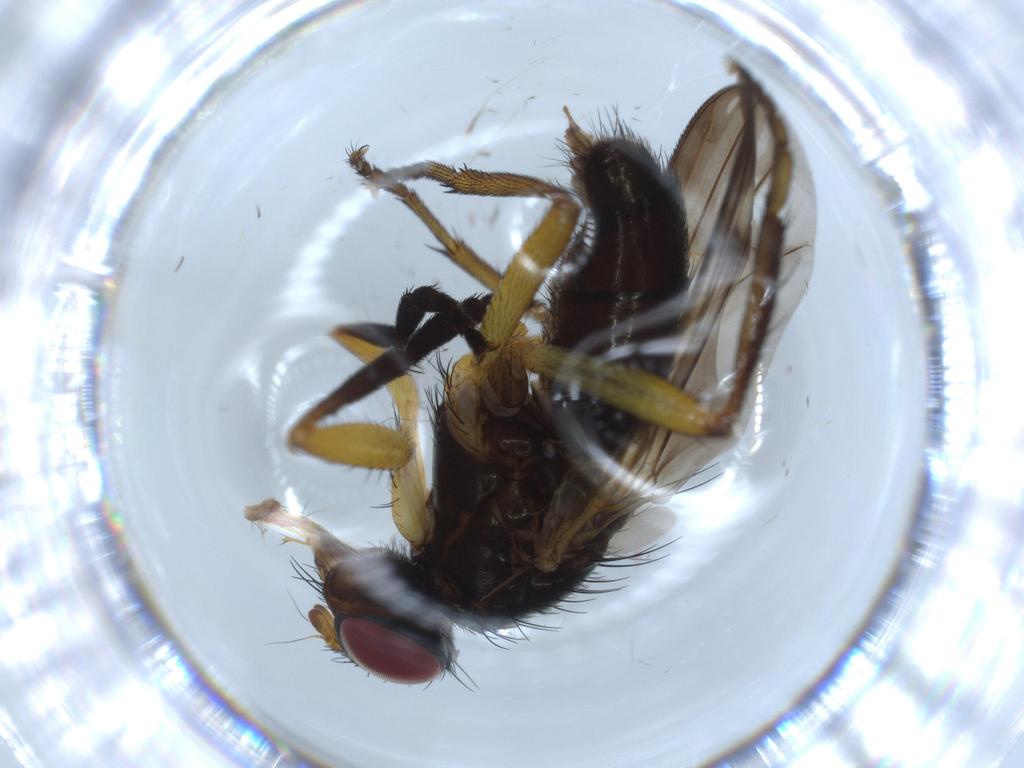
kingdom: Animalia
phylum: Arthropoda
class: Insecta
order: Diptera
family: Calliphoridae
